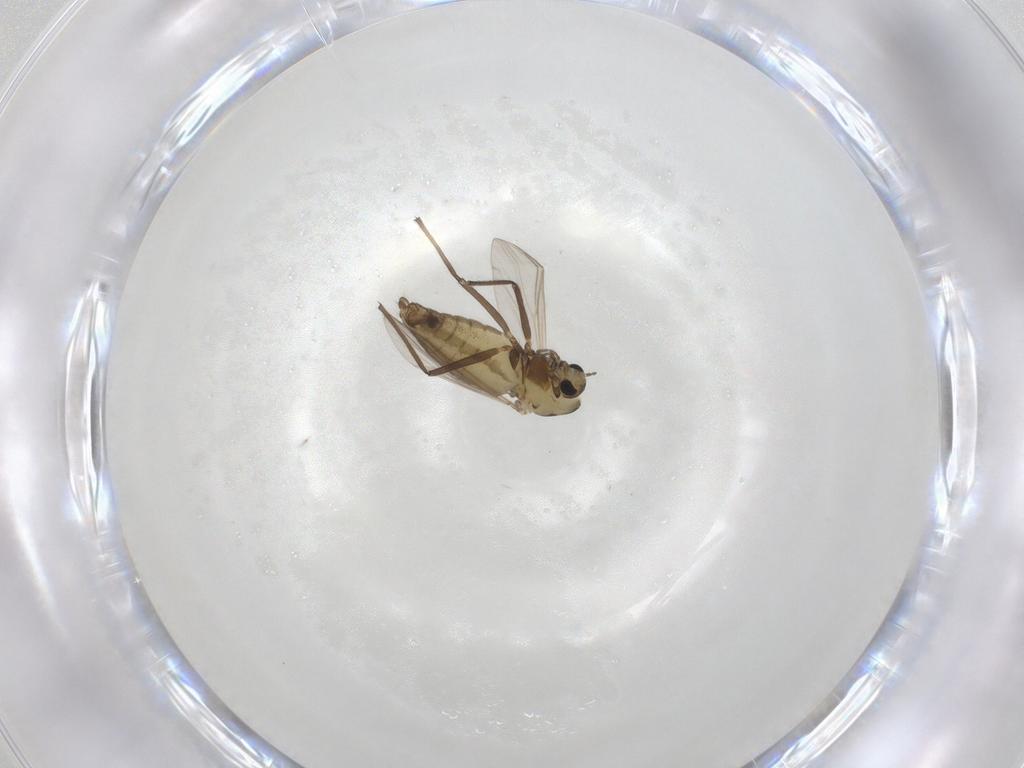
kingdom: Animalia
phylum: Arthropoda
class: Insecta
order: Diptera
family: Chironomidae
